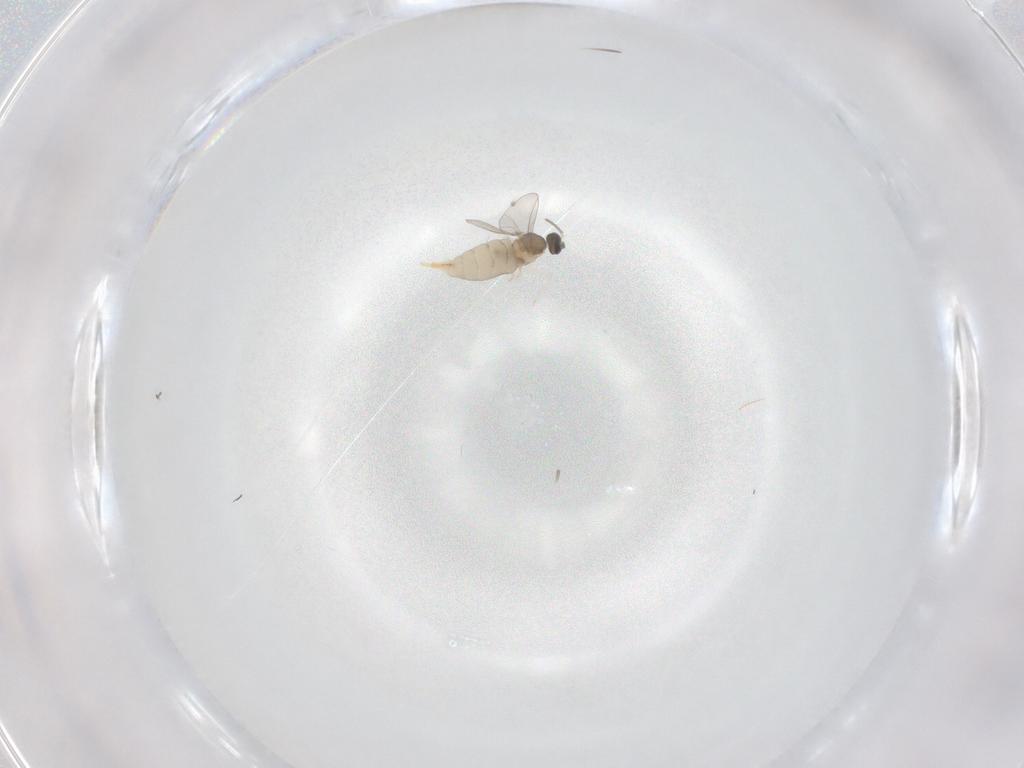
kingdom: Animalia
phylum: Arthropoda
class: Insecta
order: Diptera
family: Cecidomyiidae
